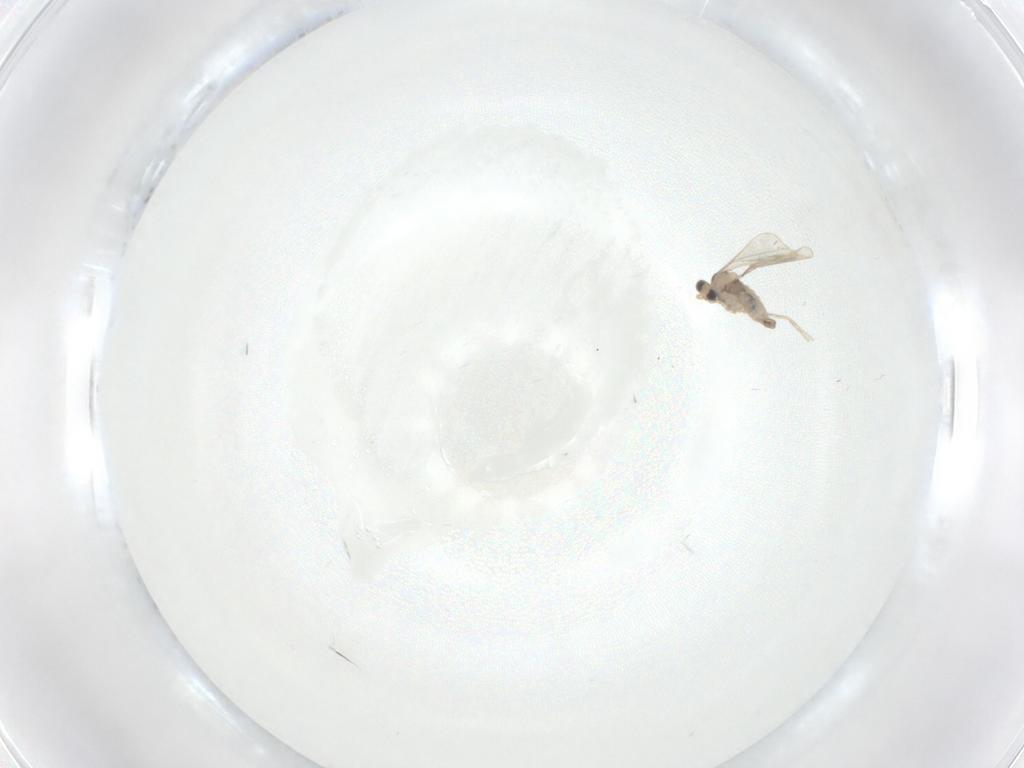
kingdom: Animalia
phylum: Arthropoda
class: Insecta
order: Diptera
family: Cecidomyiidae
